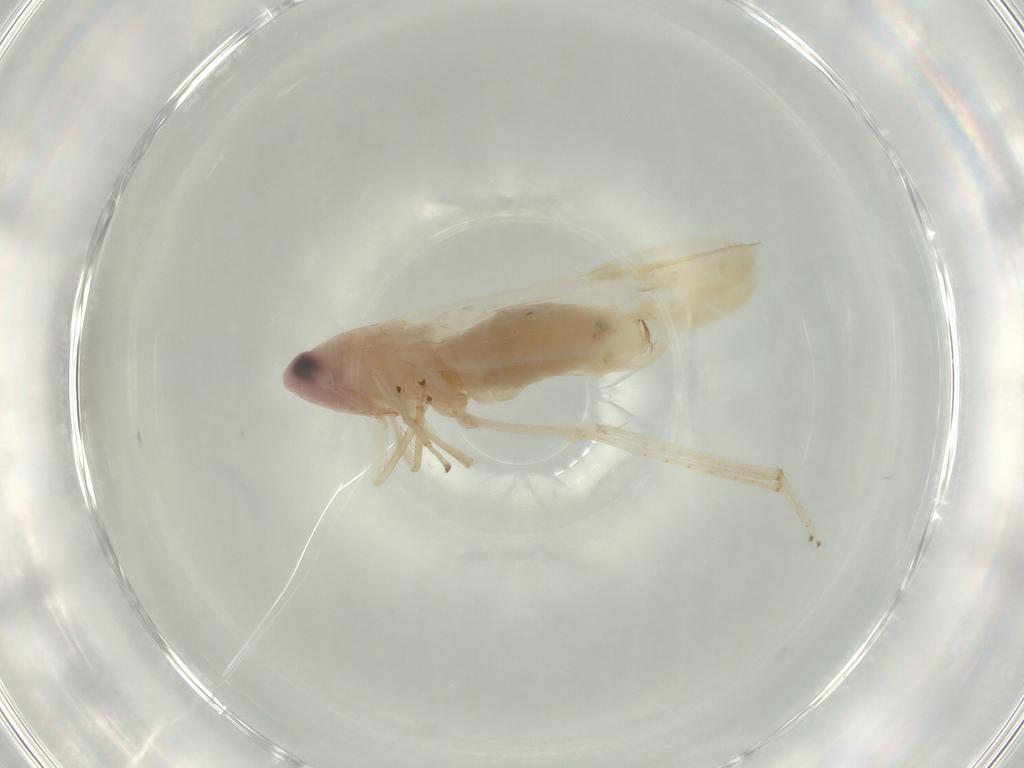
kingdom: Animalia
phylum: Arthropoda
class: Insecta
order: Hemiptera
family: Cicadellidae
